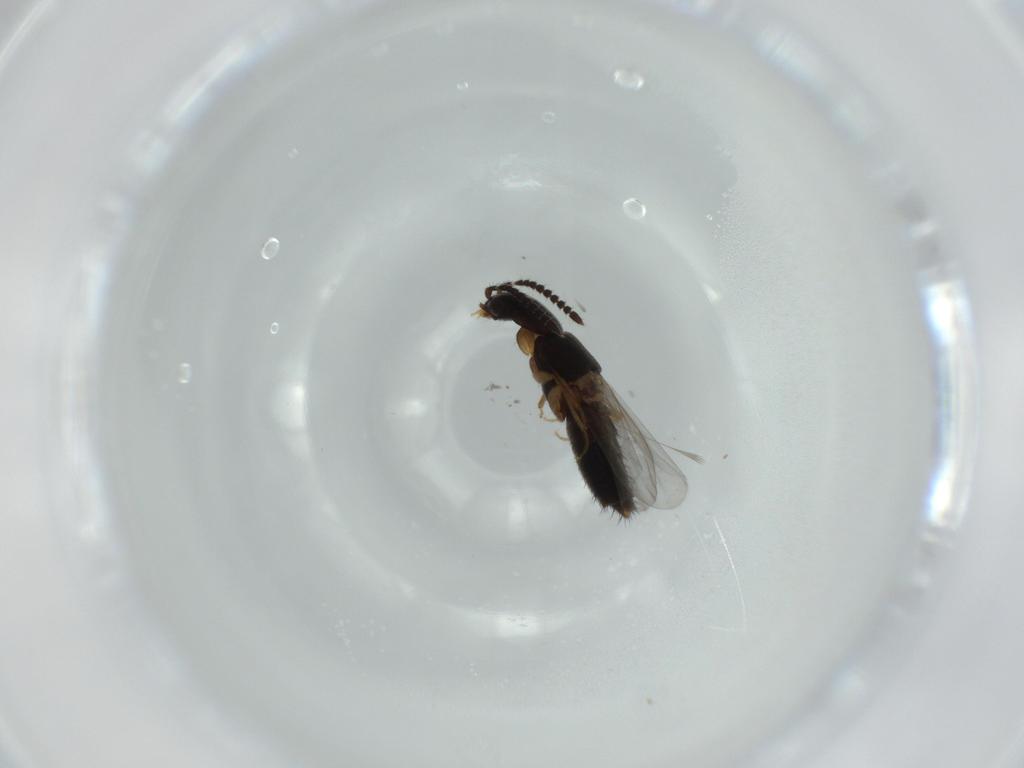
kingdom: Animalia
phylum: Arthropoda
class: Insecta
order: Coleoptera
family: Staphylinidae
